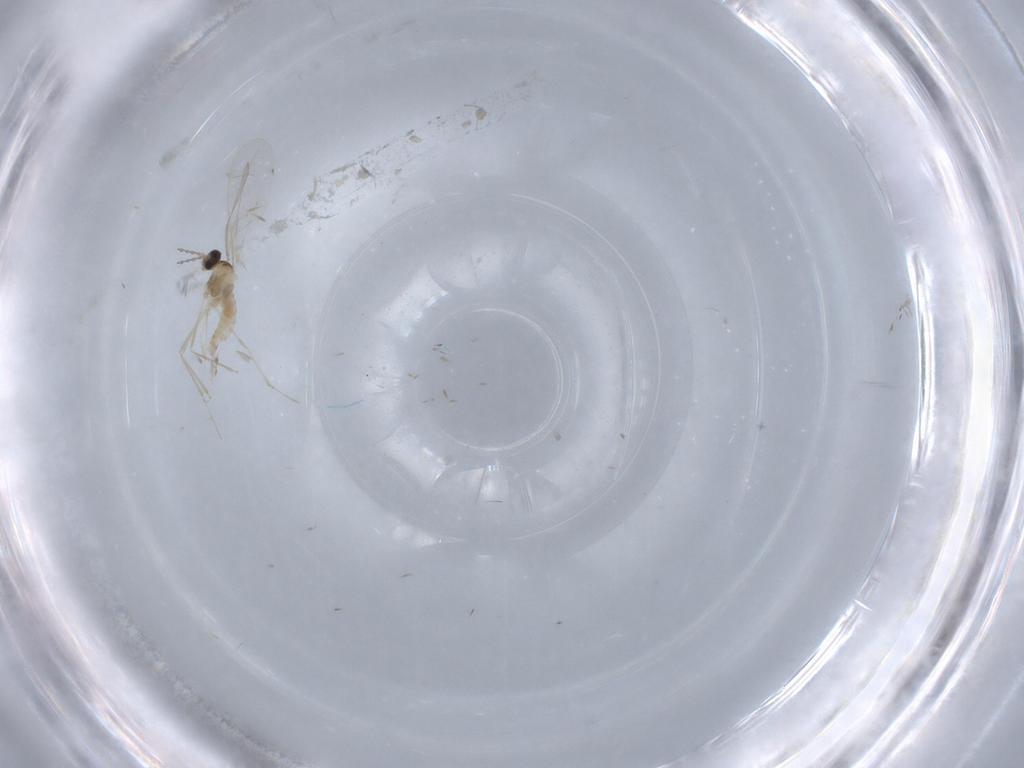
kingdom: Animalia
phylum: Arthropoda
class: Insecta
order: Diptera
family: Cecidomyiidae
